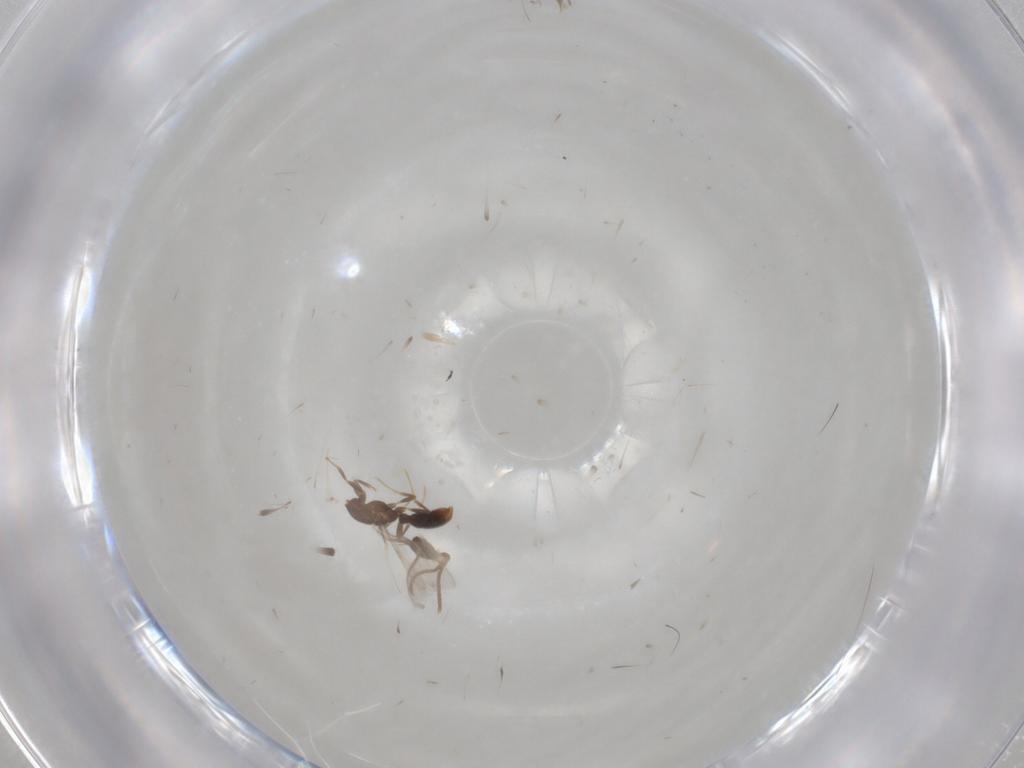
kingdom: Animalia
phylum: Arthropoda
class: Insecta
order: Hymenoptera
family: Formicidae
